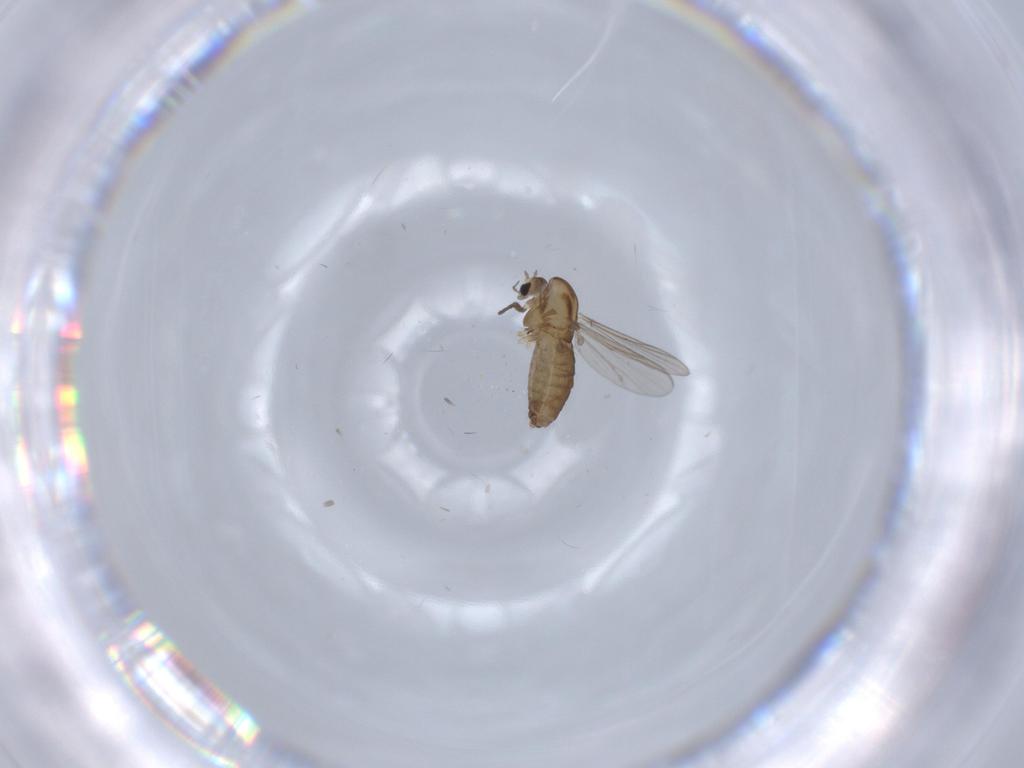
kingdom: Animalia
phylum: Arthropoda
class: Insecta
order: Diptera
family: Chironomidae
